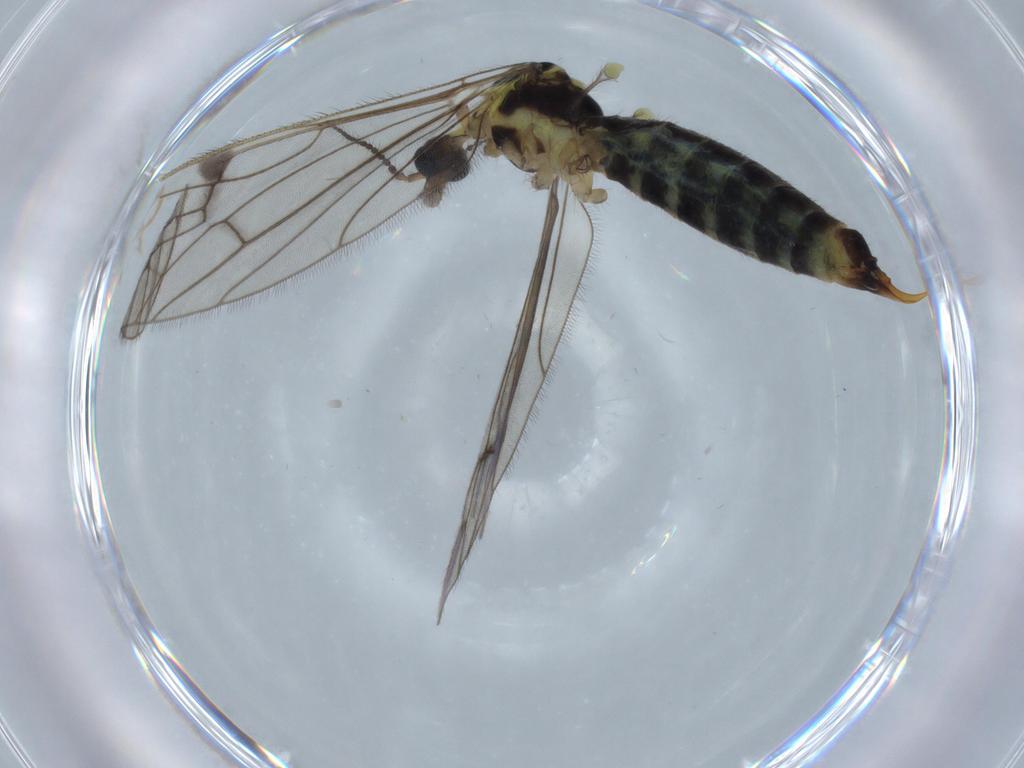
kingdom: Animalia
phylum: Arthropoda
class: Insecta
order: Diptera
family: Limoniidae
